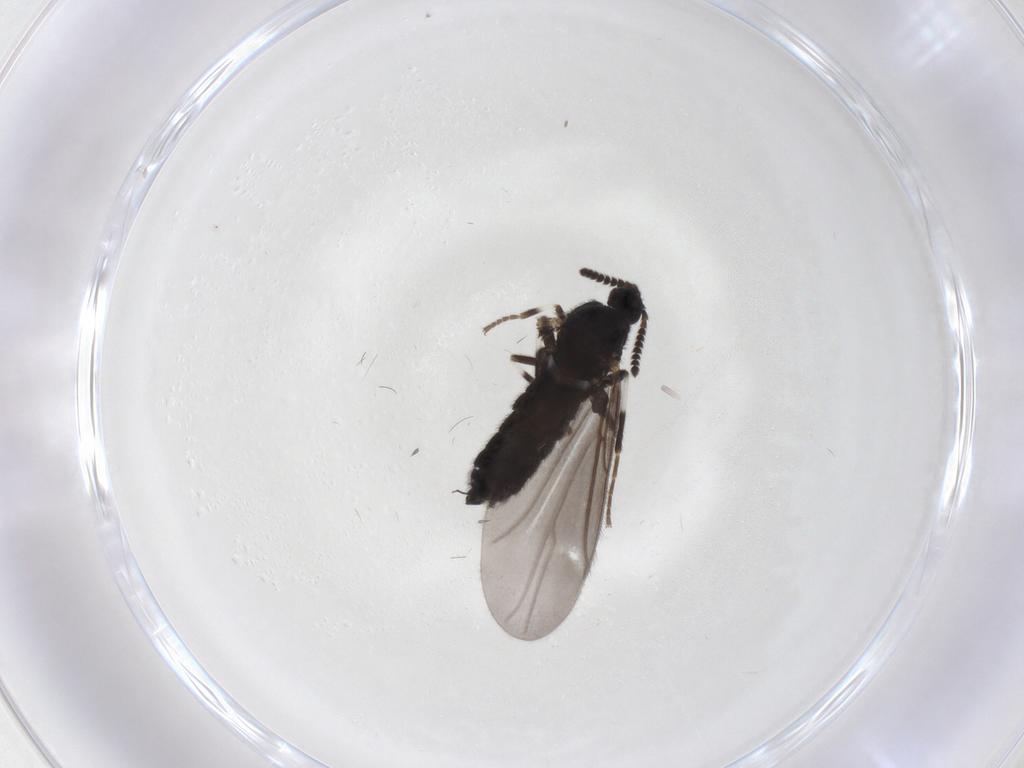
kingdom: Animalia
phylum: Arthropoda
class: Insecta
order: Diptera
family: Scatopsidae
